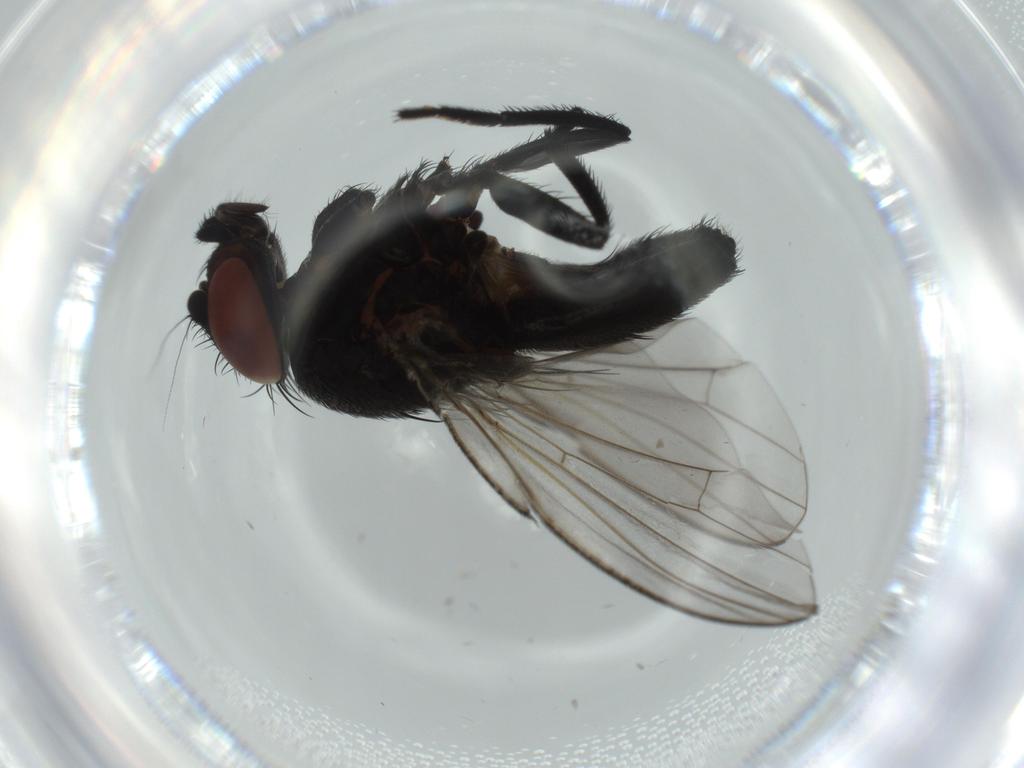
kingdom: Animalia
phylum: Arthropoda
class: Insecta
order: Diptera
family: Milichiidae
